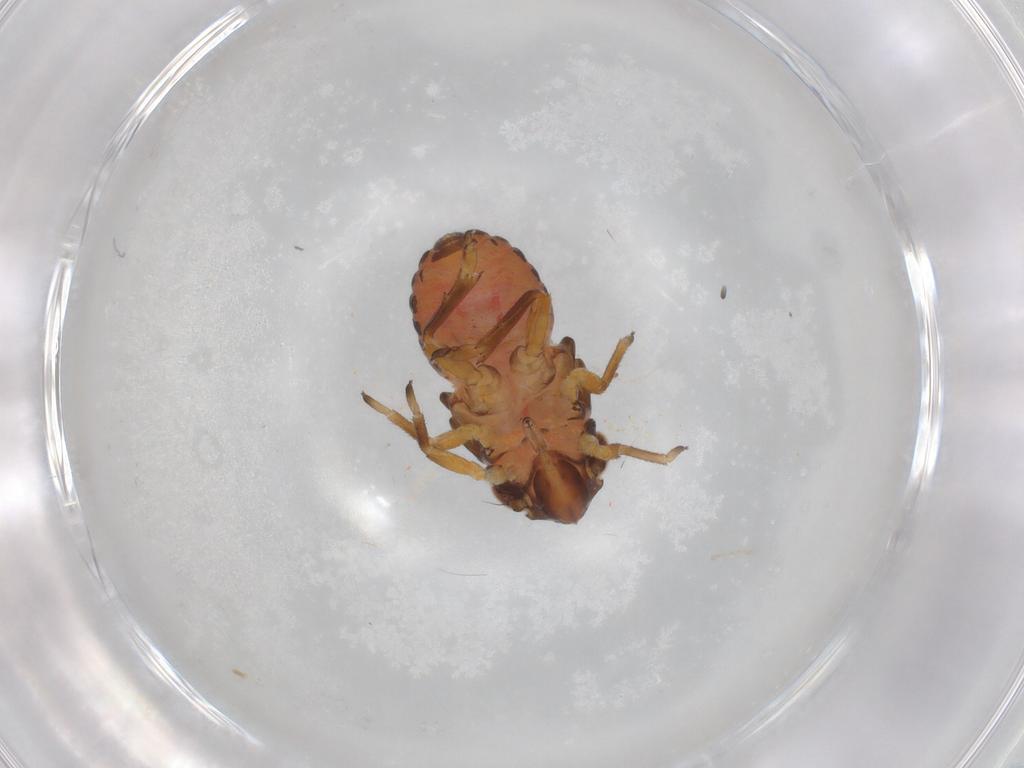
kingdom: Animalia
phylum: Arthropoda
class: Insecta
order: Hemiptera
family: Caliscelidae
